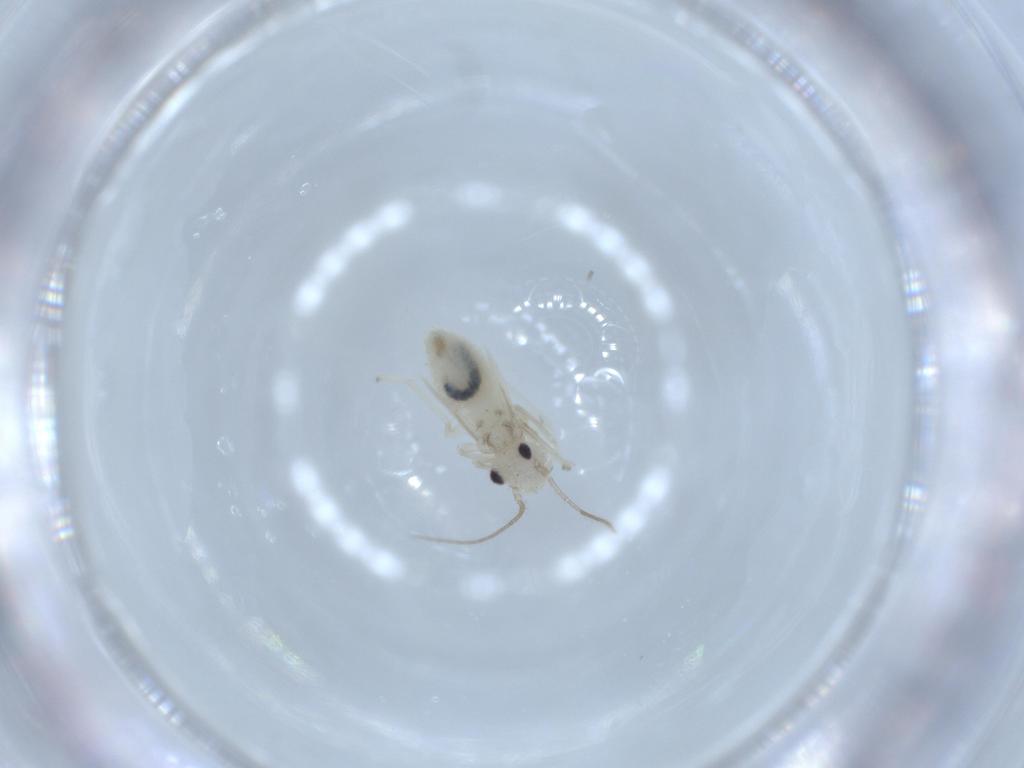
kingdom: Animalia
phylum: Arthropoda
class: Insecta
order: Psocodea
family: Caeciliusidae
